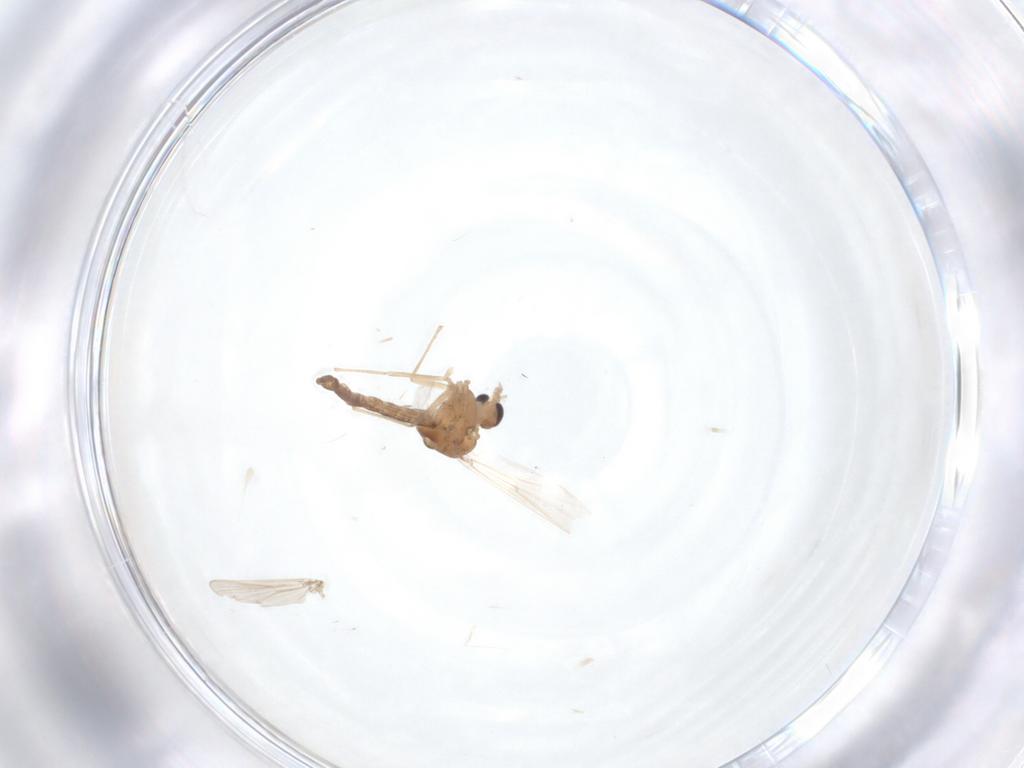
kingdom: Animalia
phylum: Arthropoda
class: Insecta
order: Diptera
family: Chironomidae
